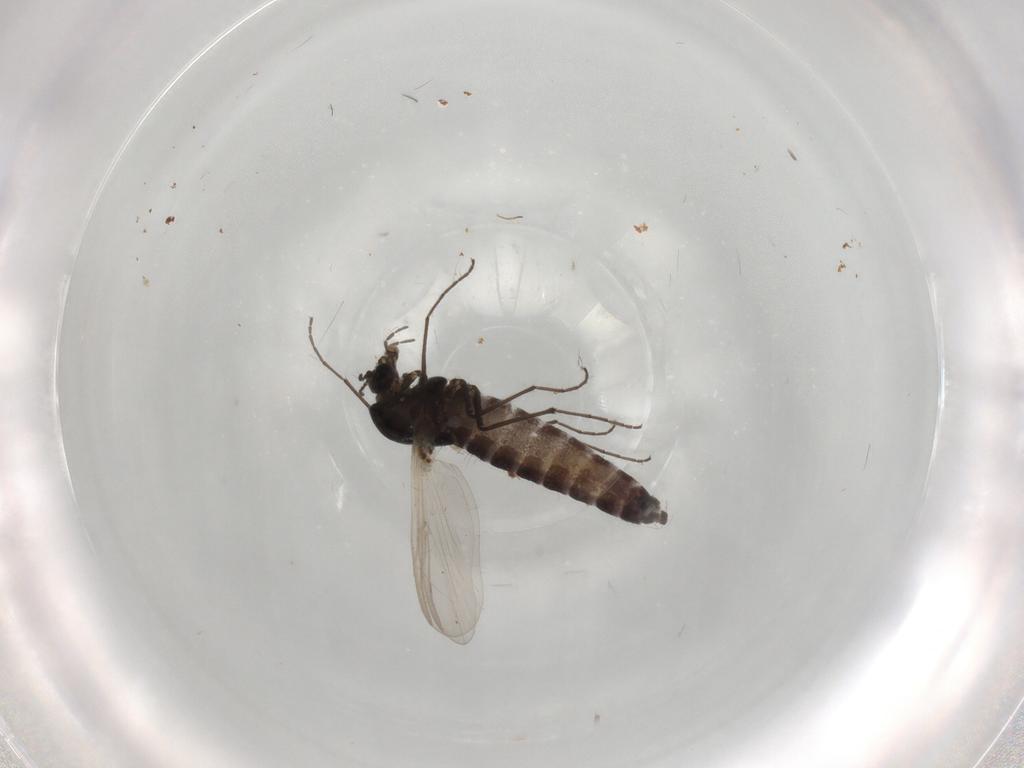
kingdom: Animalia
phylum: Arthropoda
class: Insecta
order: Diptera
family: Chironomidae
